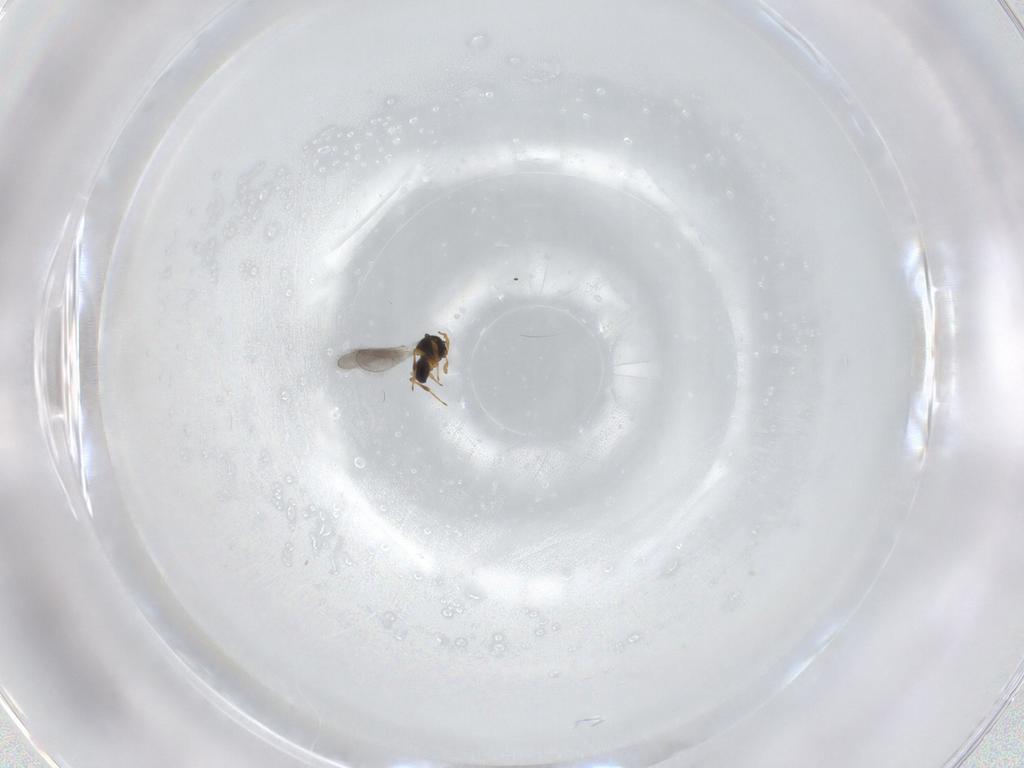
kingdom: Animalia
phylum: Arthropoda
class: Insecta
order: Hymenoptera
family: Platygastridae
